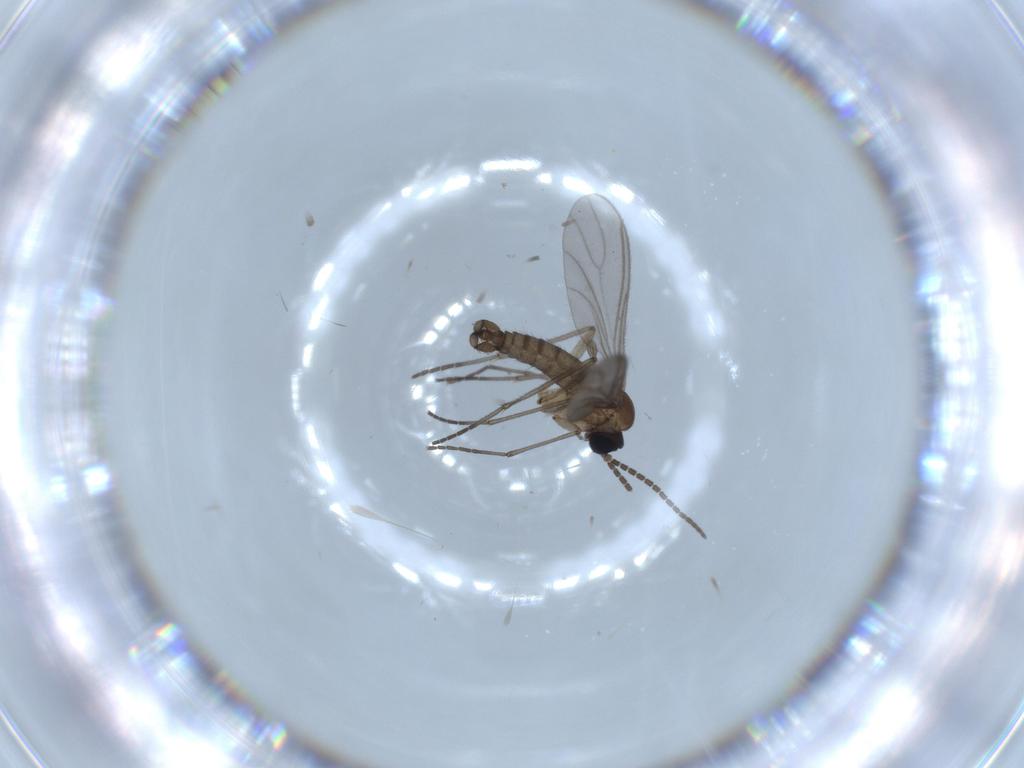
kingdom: Animalia
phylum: Arthropoda
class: Insecta
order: Diptera
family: Sciaridae
